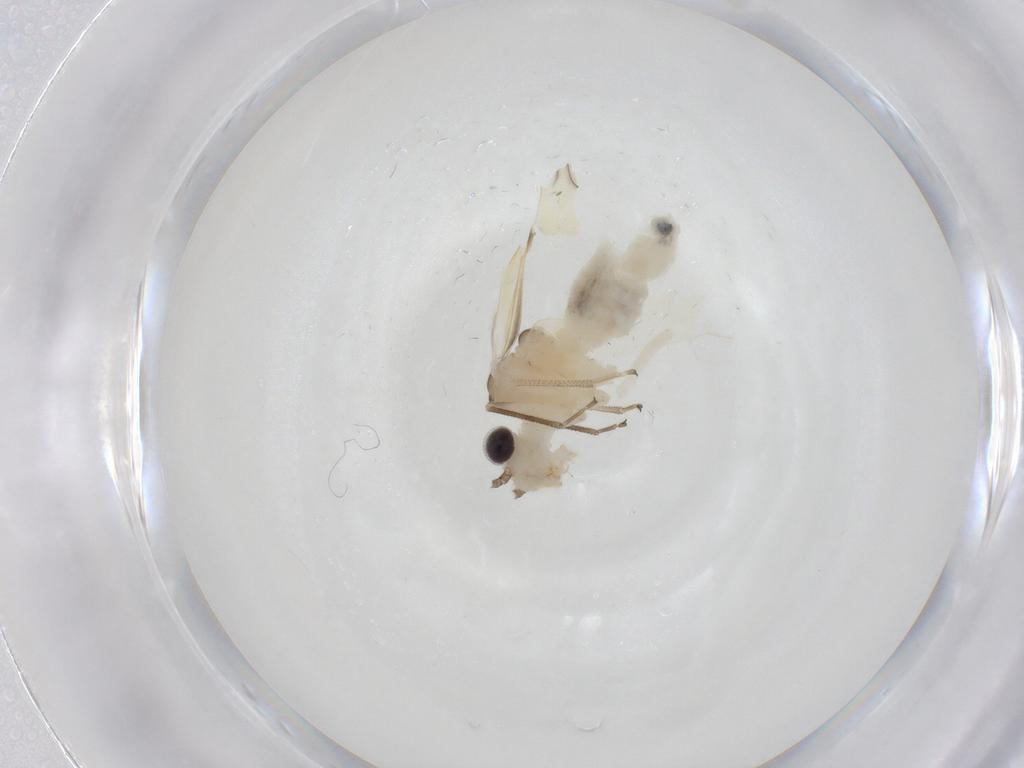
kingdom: Animalia
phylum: Arthropoda
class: Insecta
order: Psocodea
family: Caeciliusidae
